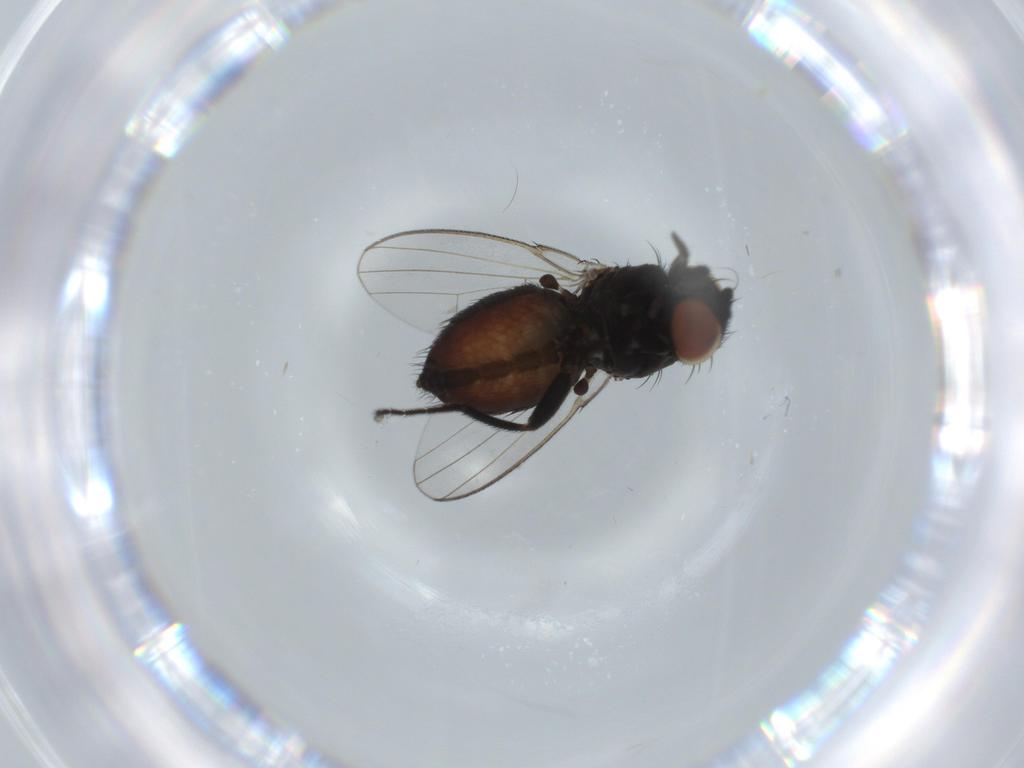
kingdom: Animalia
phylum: Arthropoda
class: Insecta
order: Diptera
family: Milichiidae
